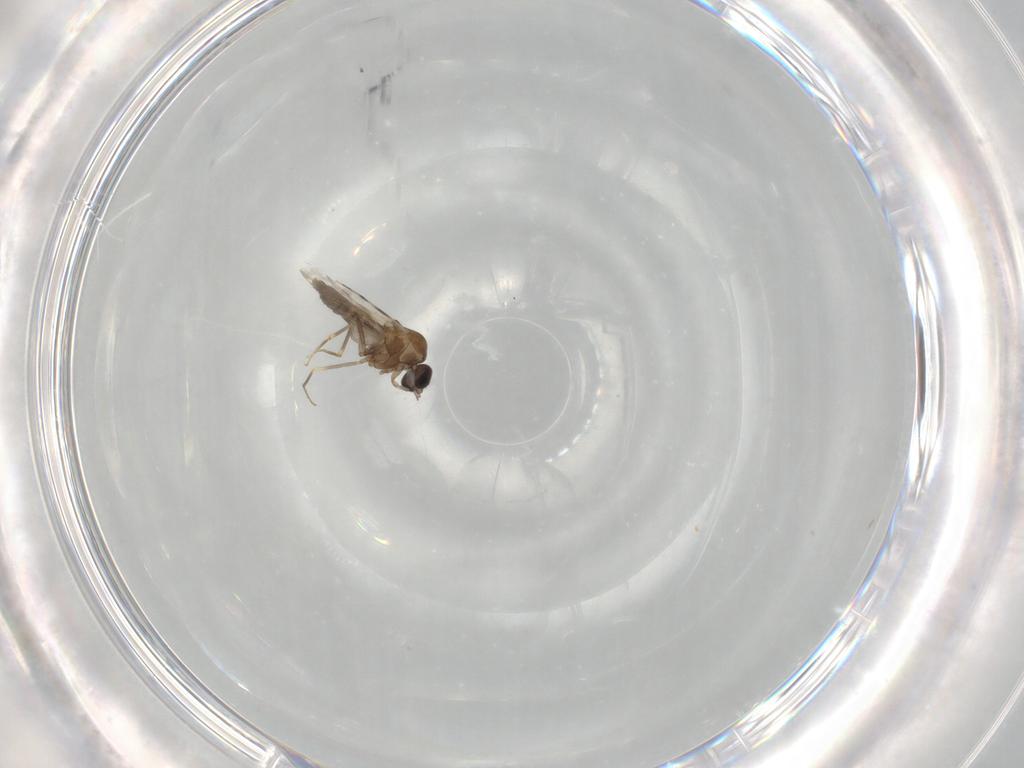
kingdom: Animalia
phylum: Arthropoda
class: Insecta
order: Diptera
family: Ceratopogonidae
